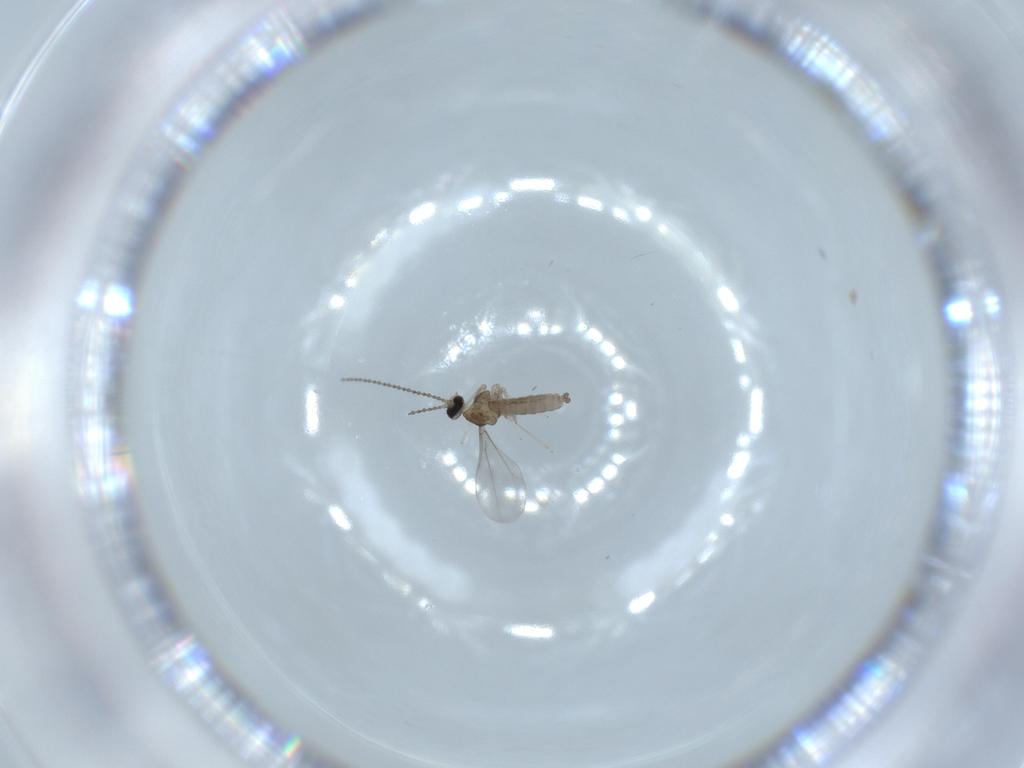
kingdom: Animalia
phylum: Arthropoda
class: Insecta
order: Diptera
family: Cecidomyiidae
